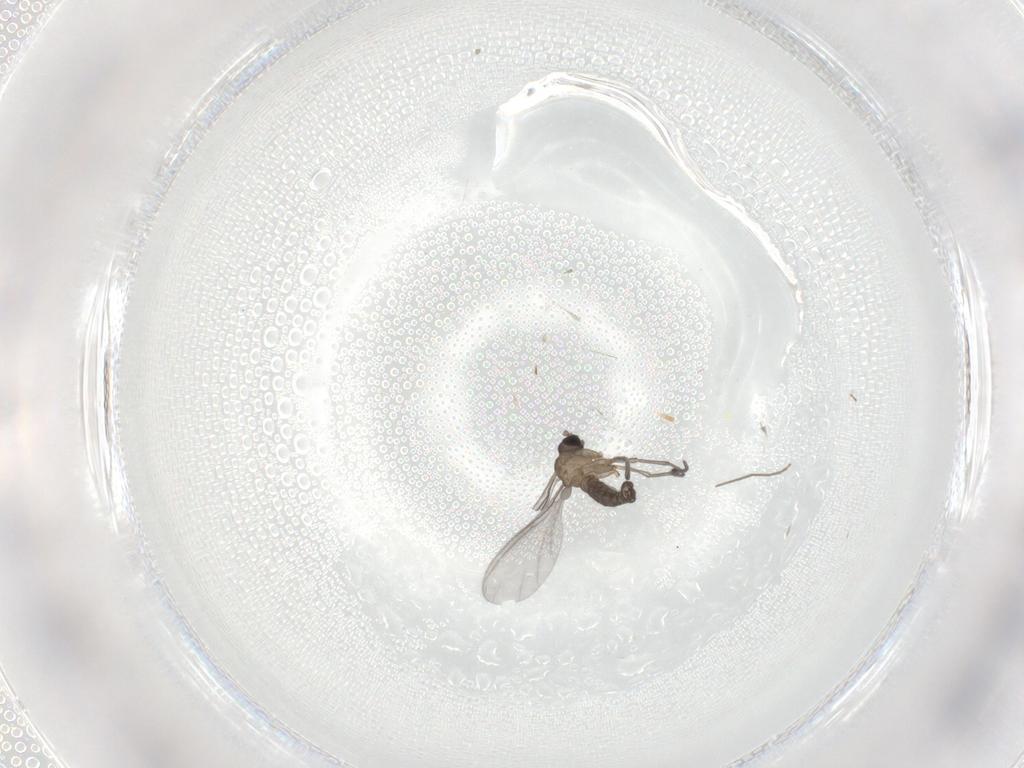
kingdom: Animalia
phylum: Arthropoda
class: Insecta
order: Diptera
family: Sciaridae
